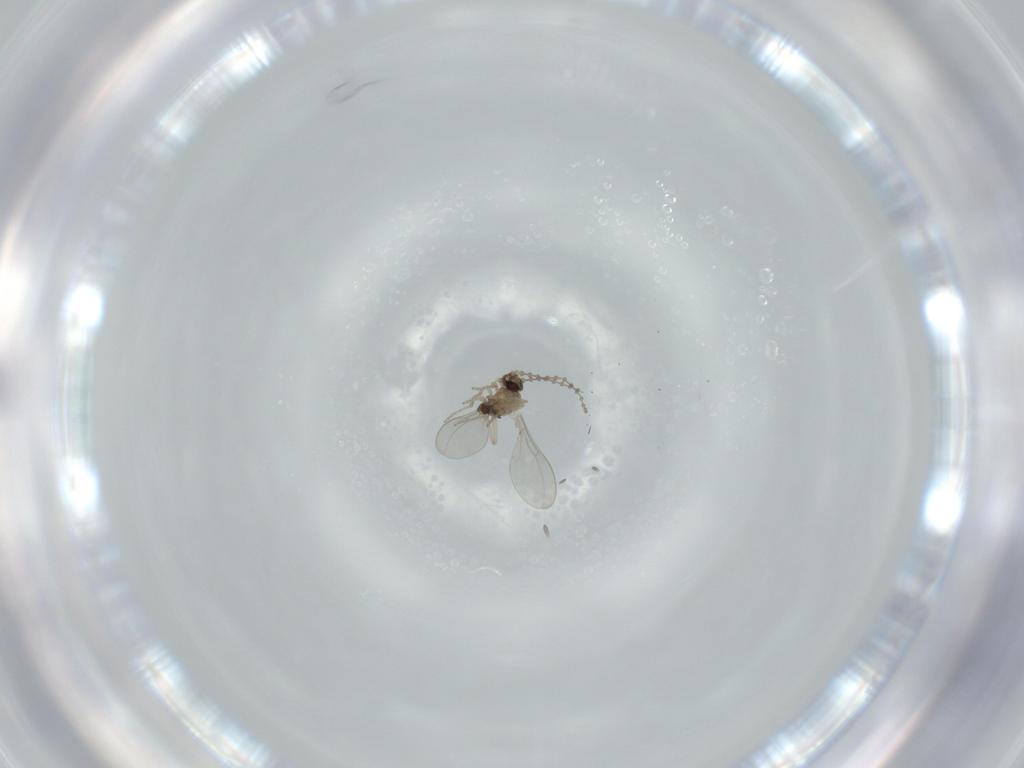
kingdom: Animalia
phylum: Arthropoda
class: Insecta
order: Diptera
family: Cecidomyiidae
